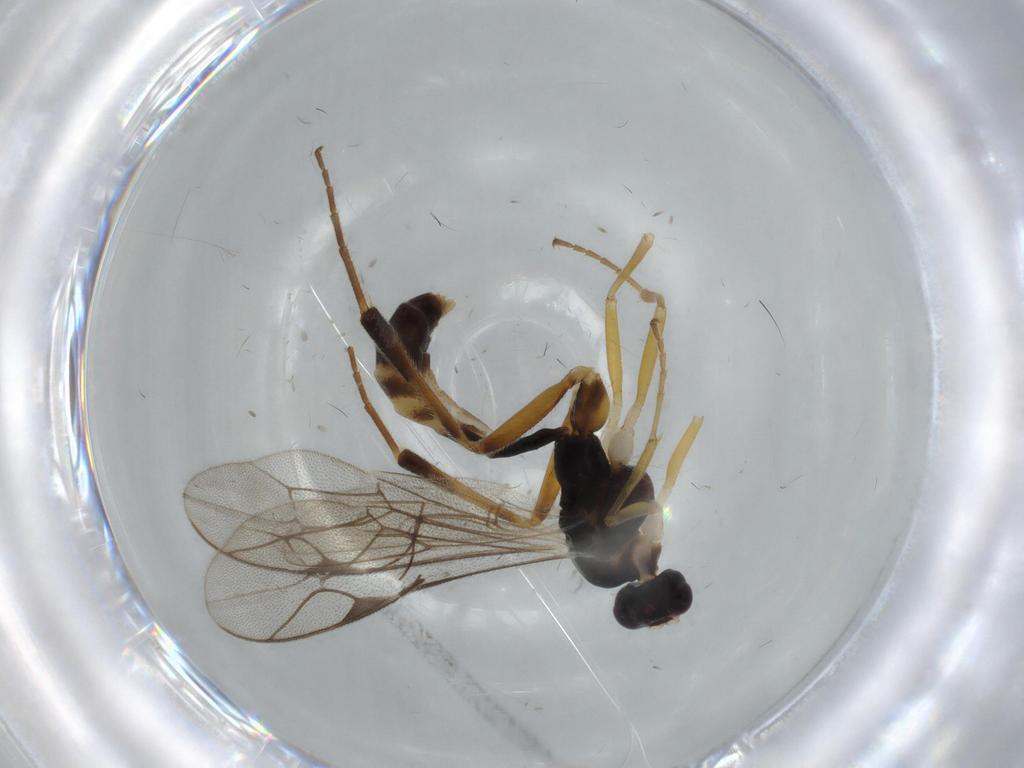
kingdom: Animalia
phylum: Arthropoda
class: Insecta
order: Hymenoptera
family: Ichneumonidae
